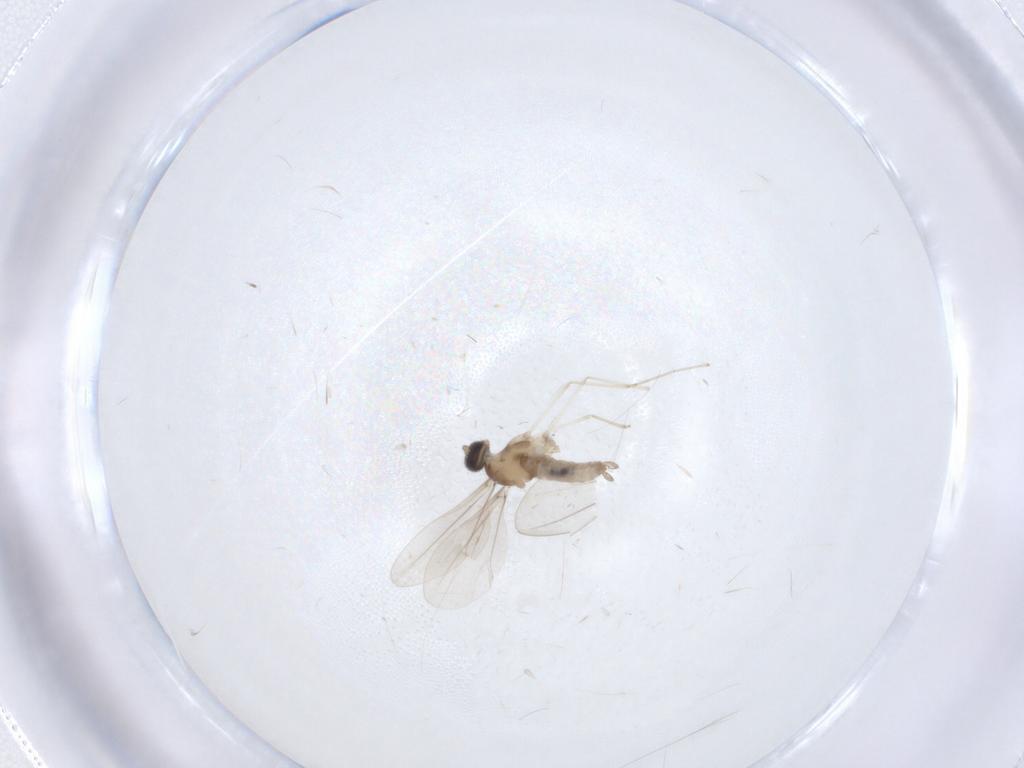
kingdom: Animalia
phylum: Arthropoda
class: Insecta
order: Diptera
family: Cecidomyiidae
